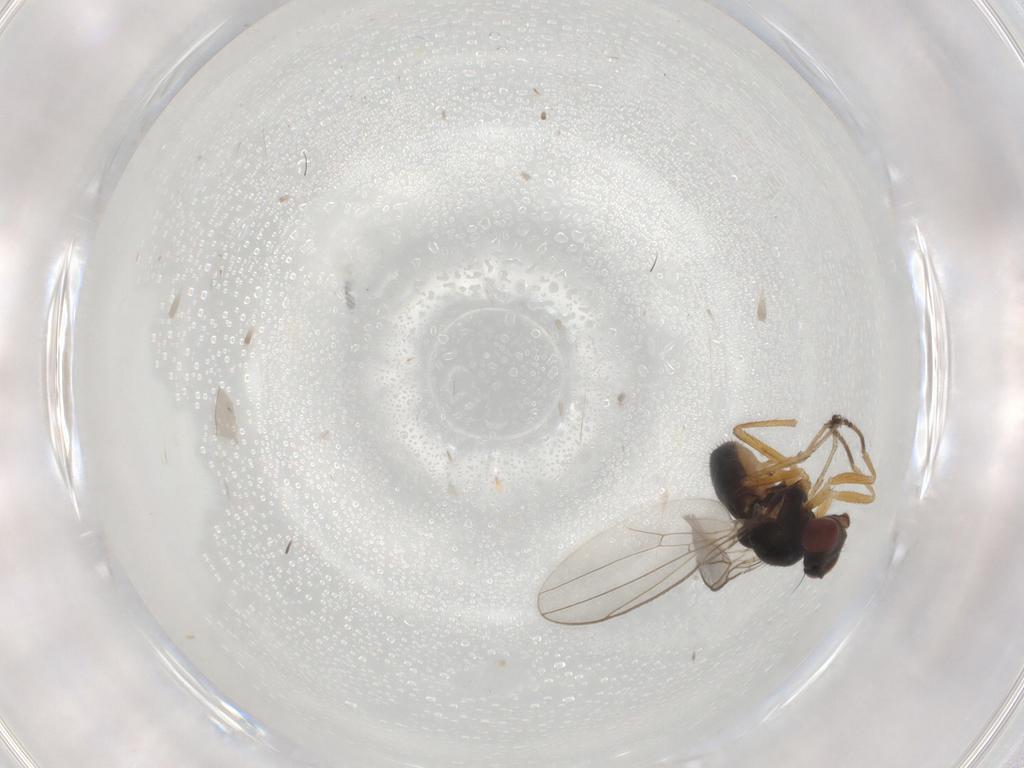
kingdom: Animalia
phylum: Arthropoda
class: Insecta
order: Diptera
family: Ephydridae
